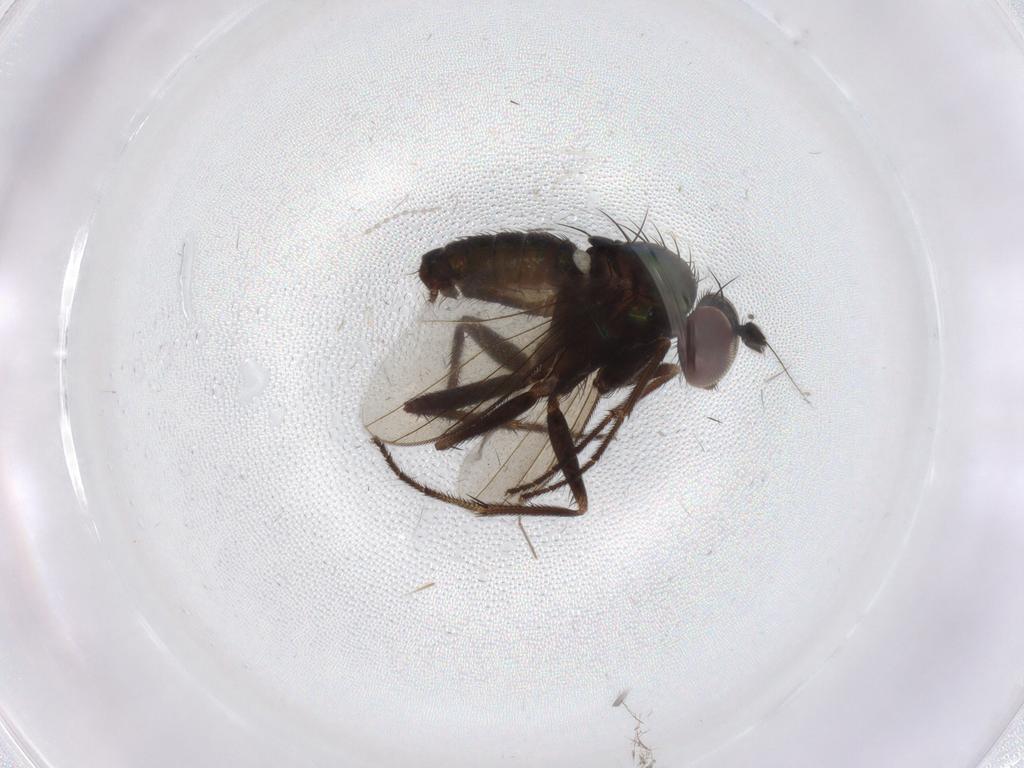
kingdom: Animalia
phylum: Arthropoda
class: Insecta
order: Diptera
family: Dolichopodidae
